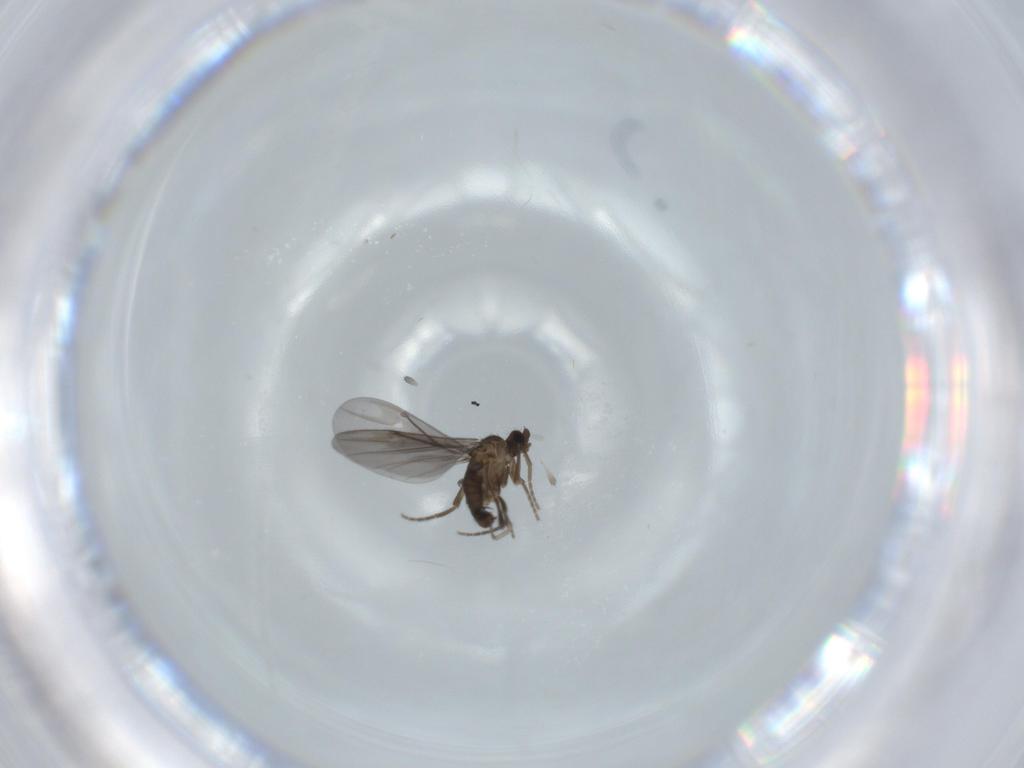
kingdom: Animalia
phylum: Arthropoda
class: Insecta
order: Diptera
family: Phoridae
